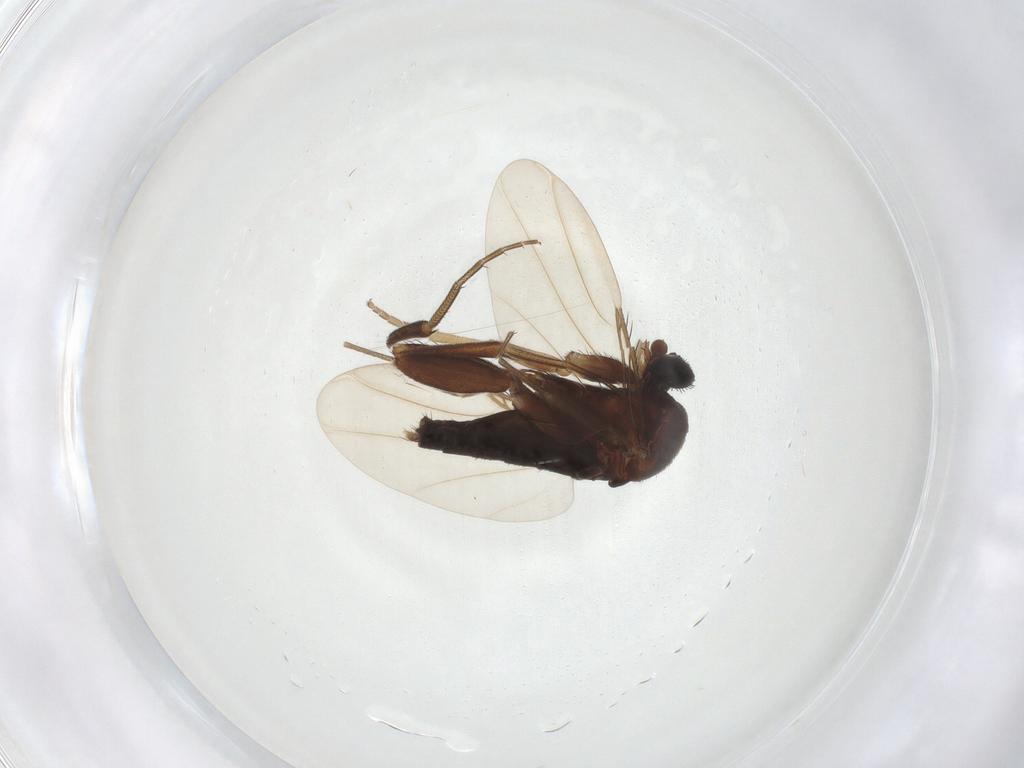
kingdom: Animalia
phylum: Arthropoda
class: Insecta
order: Diptera
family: Phoridae
